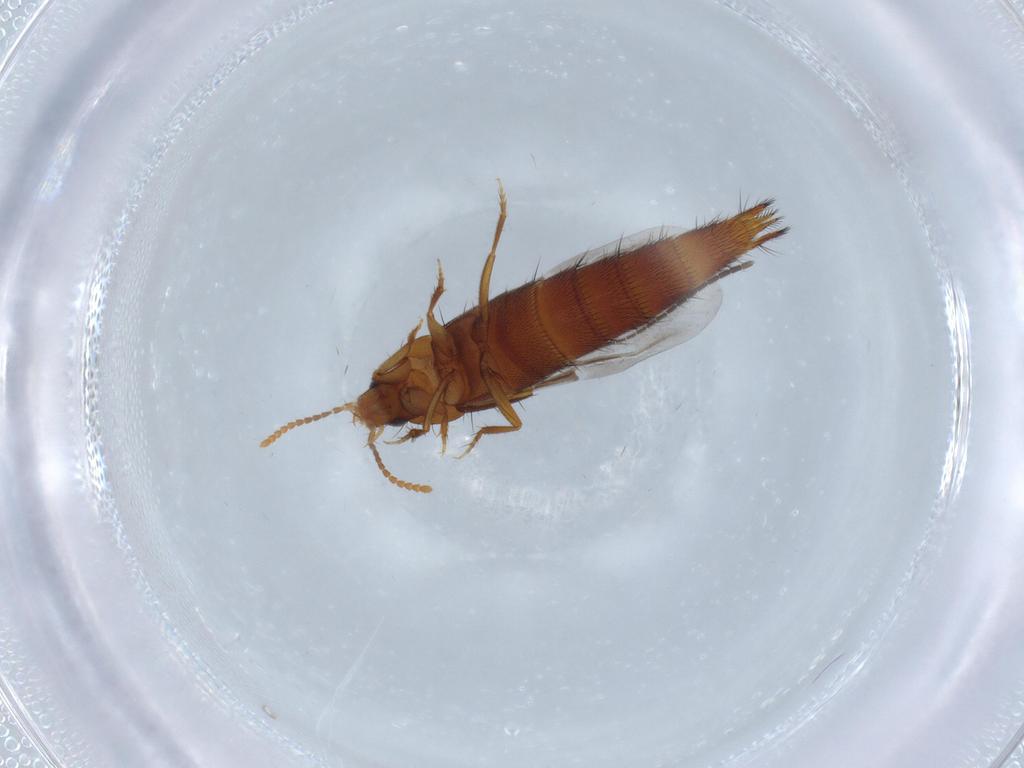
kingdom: Animalia
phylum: Arthropoda
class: Insecta
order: Coleoptera
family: Staphylinidae
